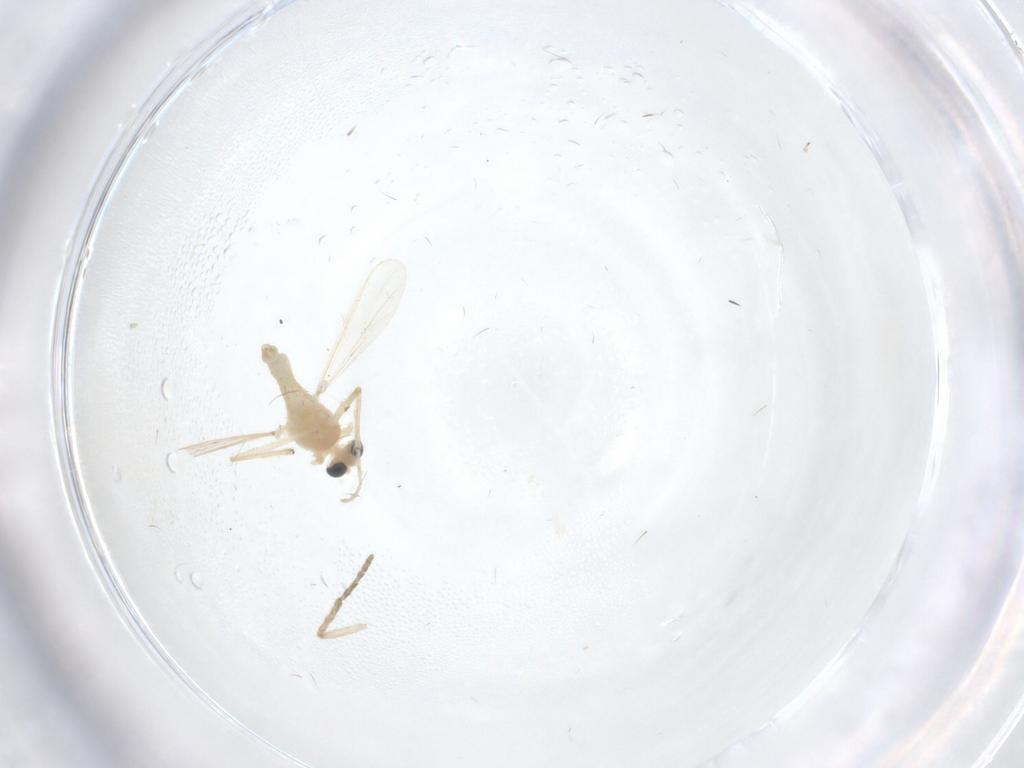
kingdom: Animalia
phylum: Arthropoda
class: Insecta
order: Diptera
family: Chironomidae
